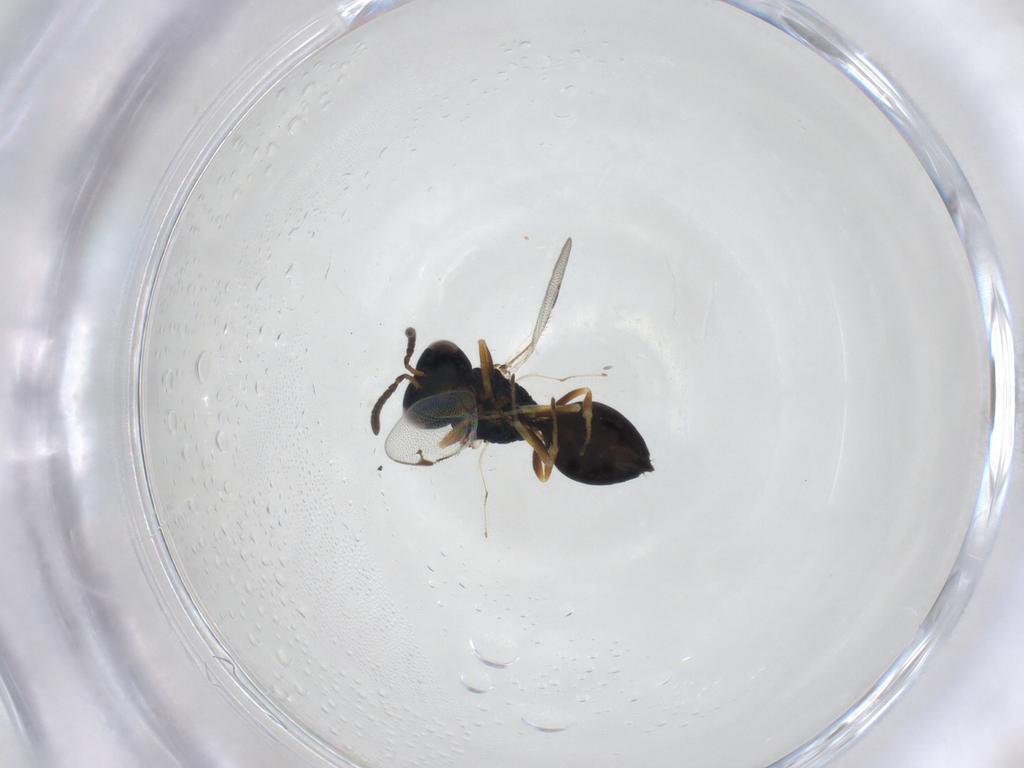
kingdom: Animalia
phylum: Arthropoda
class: Insecta
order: Hymenoptera
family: Pteromalidae
